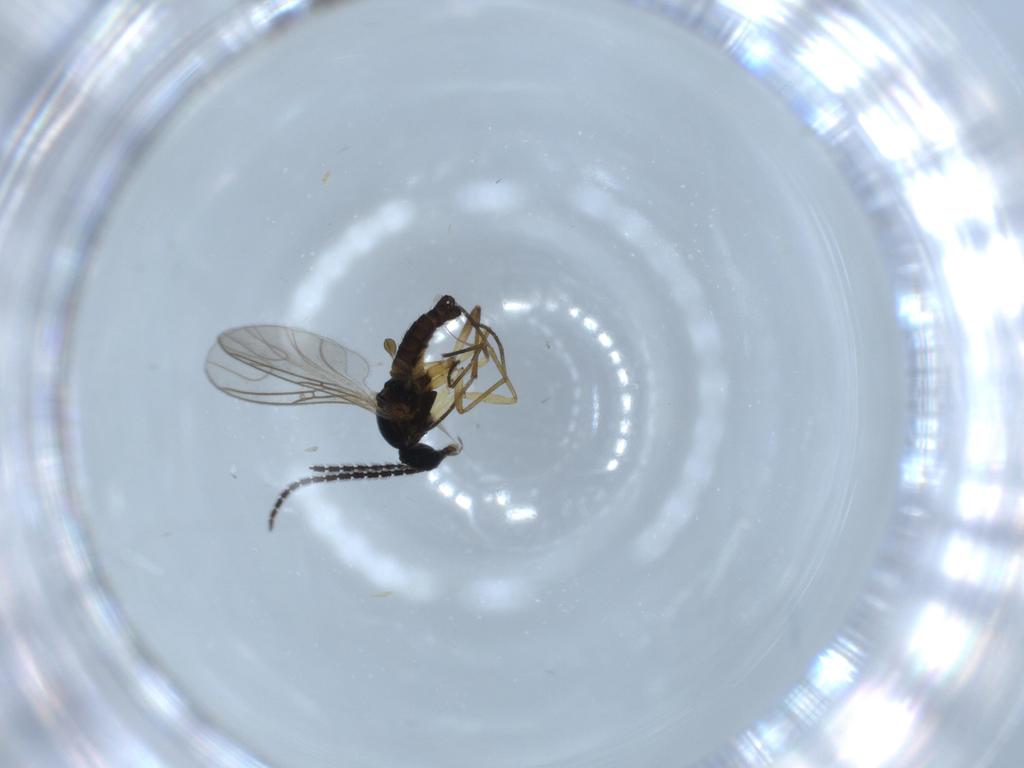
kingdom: Animalia
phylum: Arthropoda
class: Insecta
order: Diptera
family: Sciaridae
